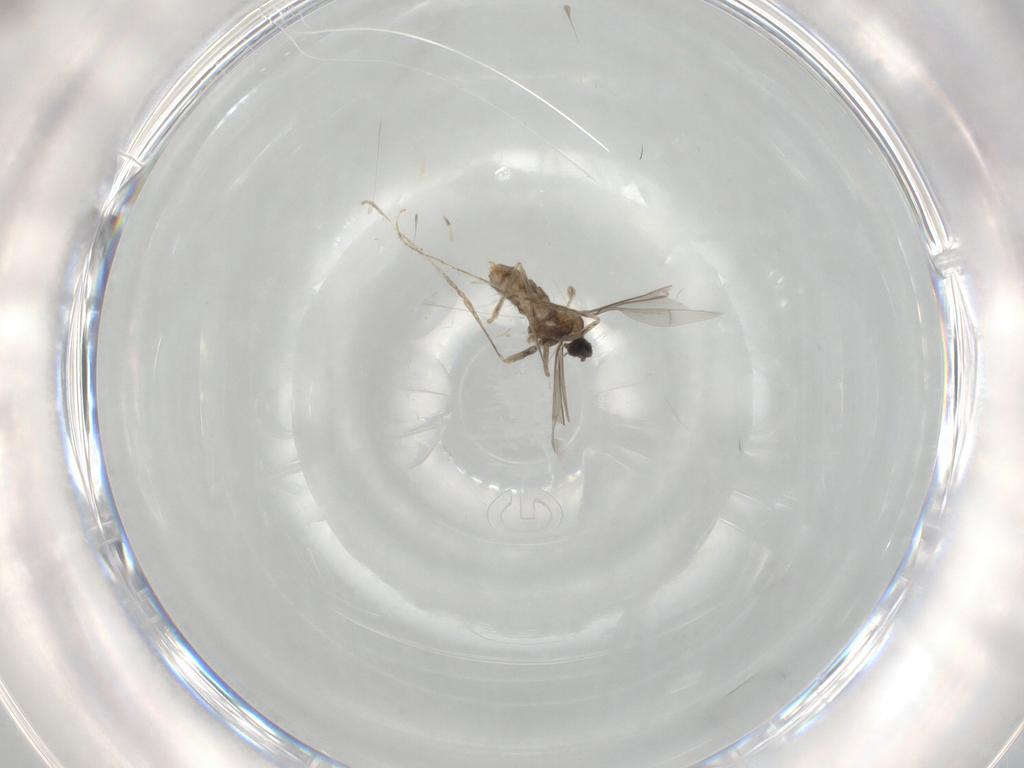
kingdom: Animalia
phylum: Arthropoda
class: Insecta
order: Diptera
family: Cecidomyiidae
